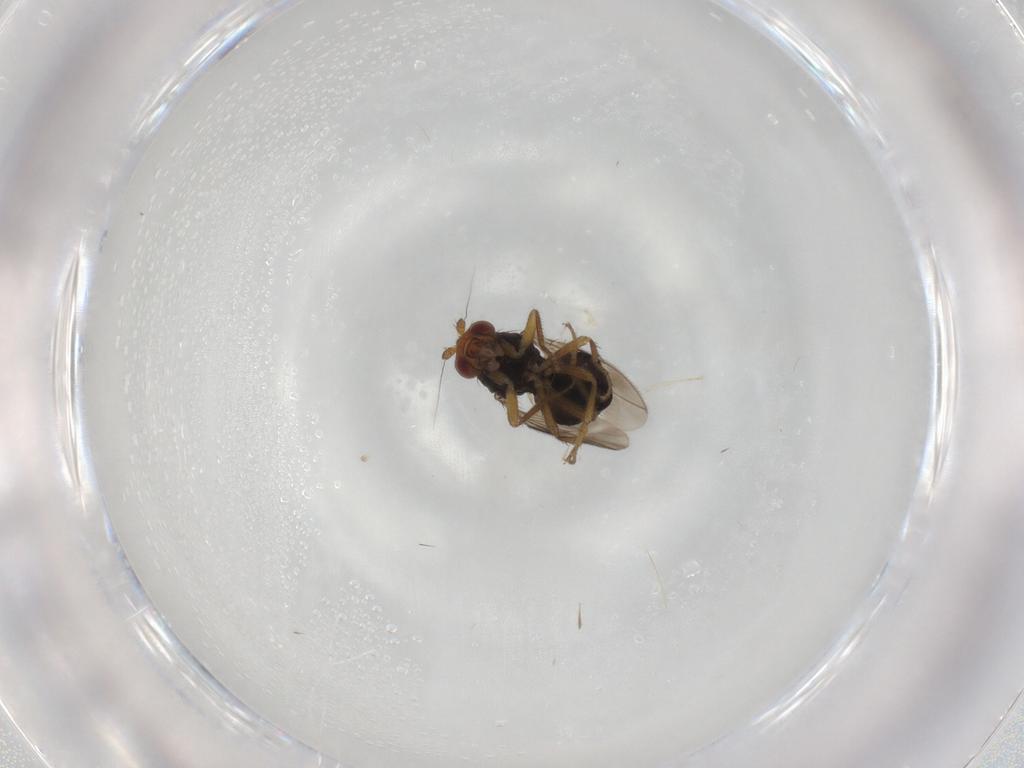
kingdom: Animalia
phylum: Arthropoda
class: Insecta
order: Diptera
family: Sphaeroceridae
